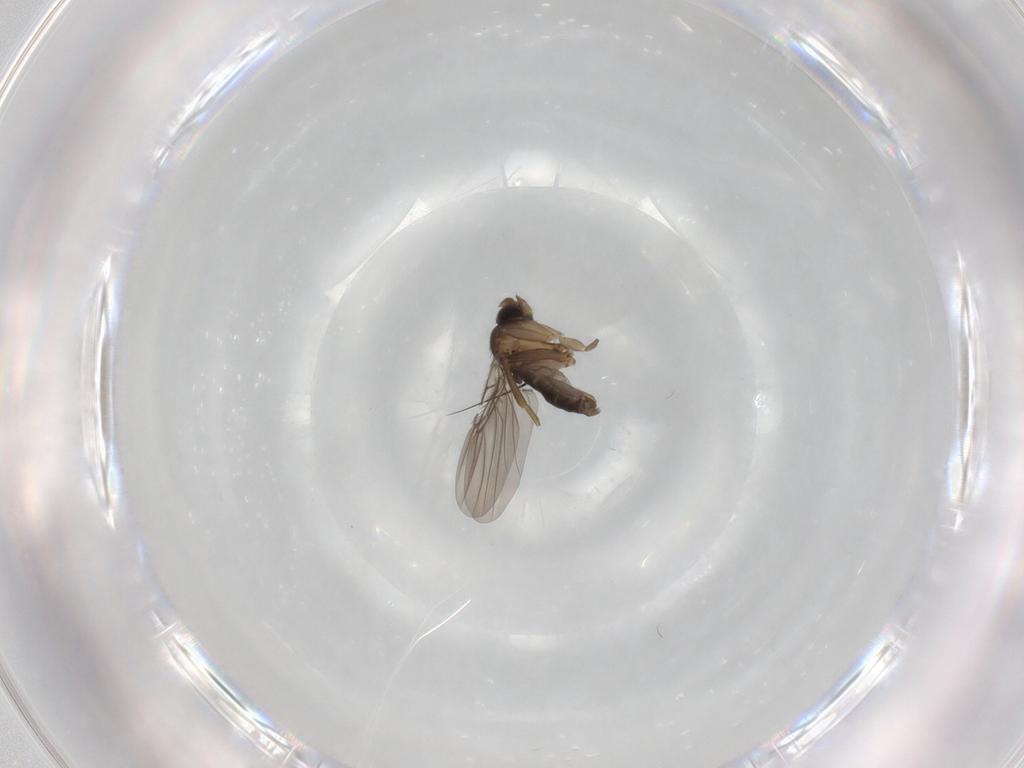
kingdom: Animalia
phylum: Arthropoda
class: Insecta
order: Diptera
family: Phoridae
